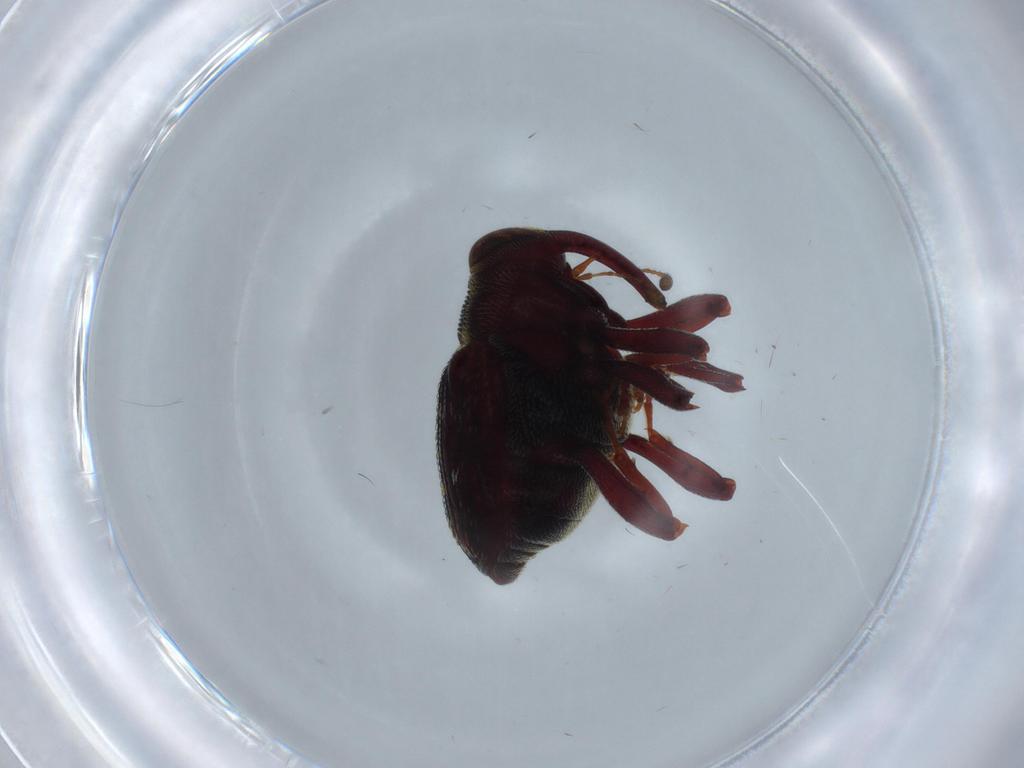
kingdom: Animalia
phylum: Arthropoda
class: Insecta
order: Coleoptera
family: Curculionidae
